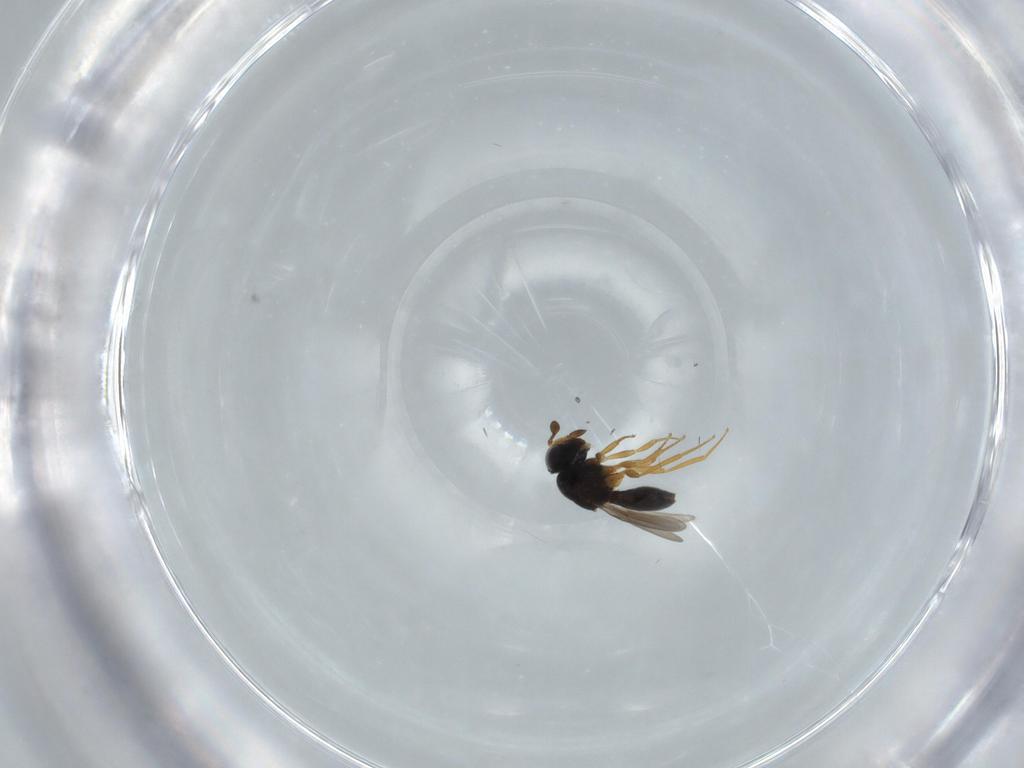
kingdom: Animalia
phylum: Arthropoda
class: Insecta
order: Hymenoptera
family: Scelionidae
